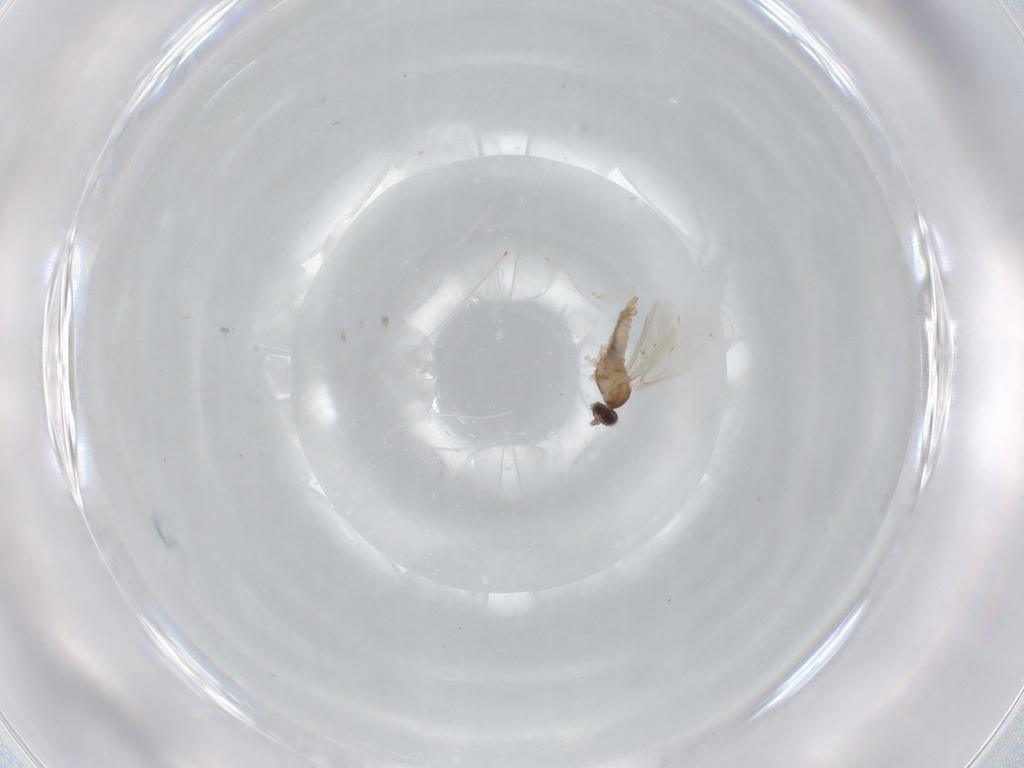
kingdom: Animalia
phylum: Arthropoda
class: Insecta
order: Diptera
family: Cecidomyiidae
